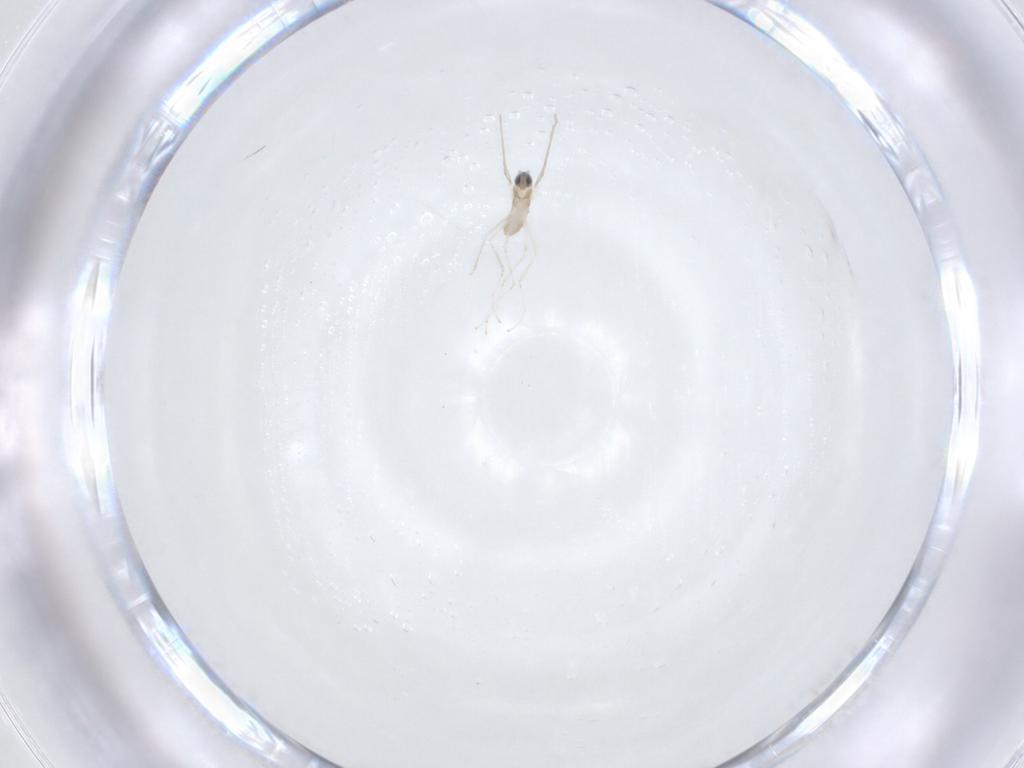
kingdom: Animalia
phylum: Arthropoda
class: Insecta
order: Diptera
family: Cecidomyiidae
